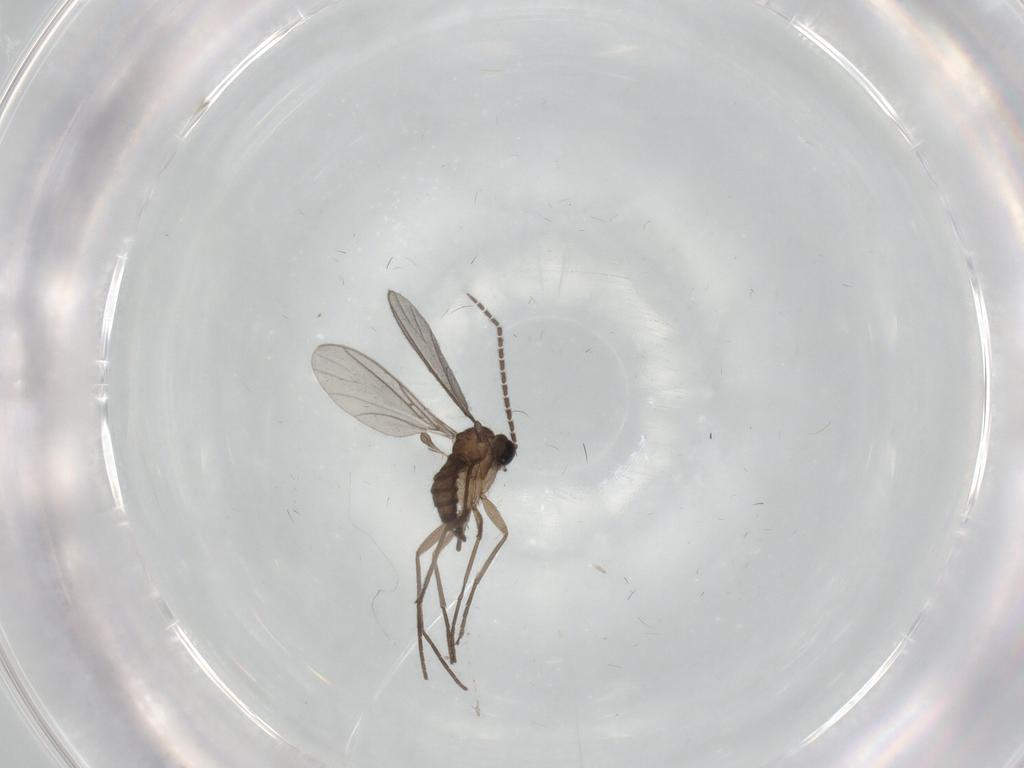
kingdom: Animalia
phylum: Arthropoda
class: Insecta
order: Diptera
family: Sciaridae
